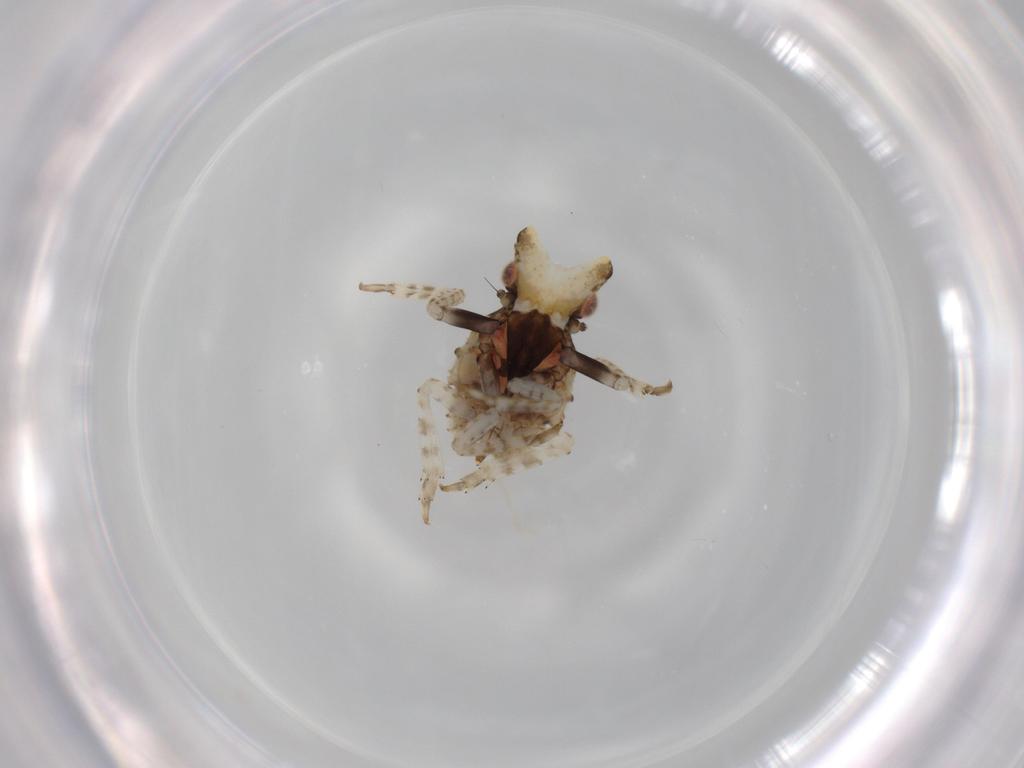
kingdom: Animalia
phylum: Arthropoda
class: Insecta
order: Hemiptera
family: Fulgoridae
